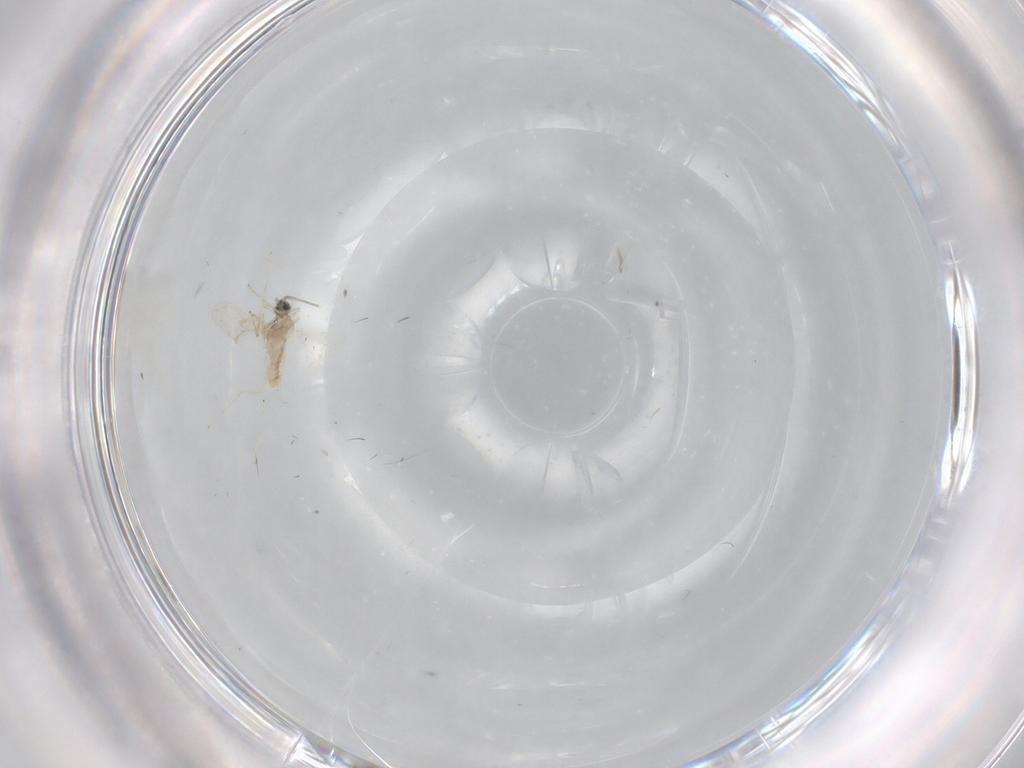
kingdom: Animalia
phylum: Arthropoda
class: Insecta
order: Diptera
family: Cecidomyiidae
